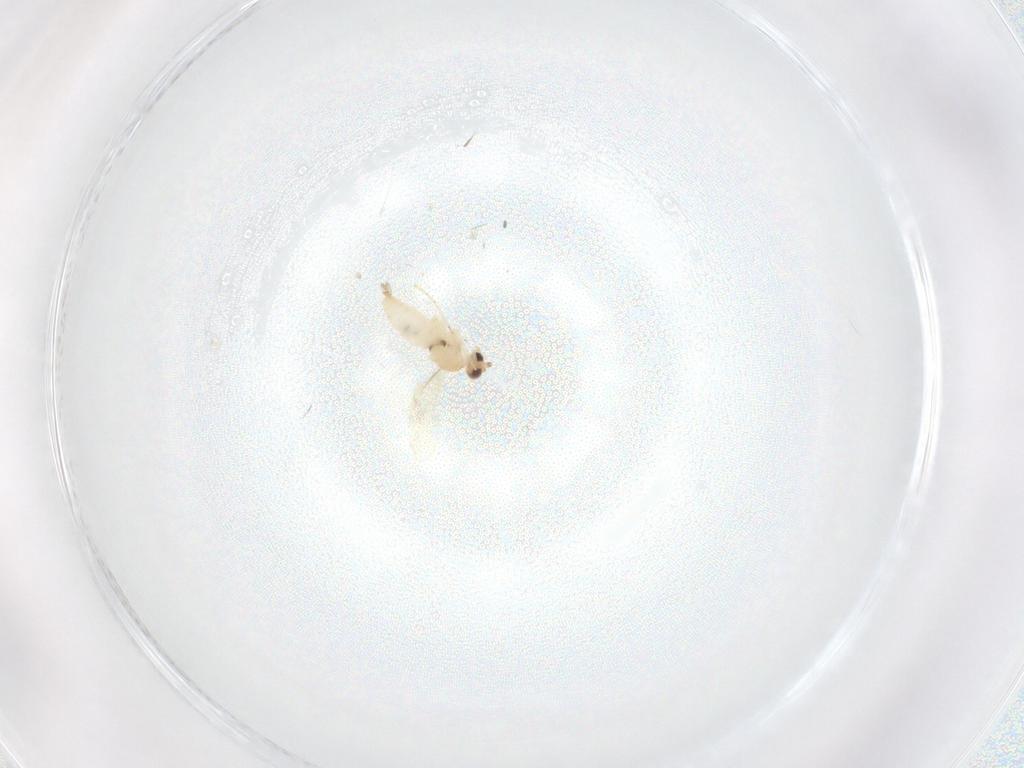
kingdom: Animalia
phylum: Arthropoda
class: Insecta
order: Diptera
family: Cecidomyiidae
